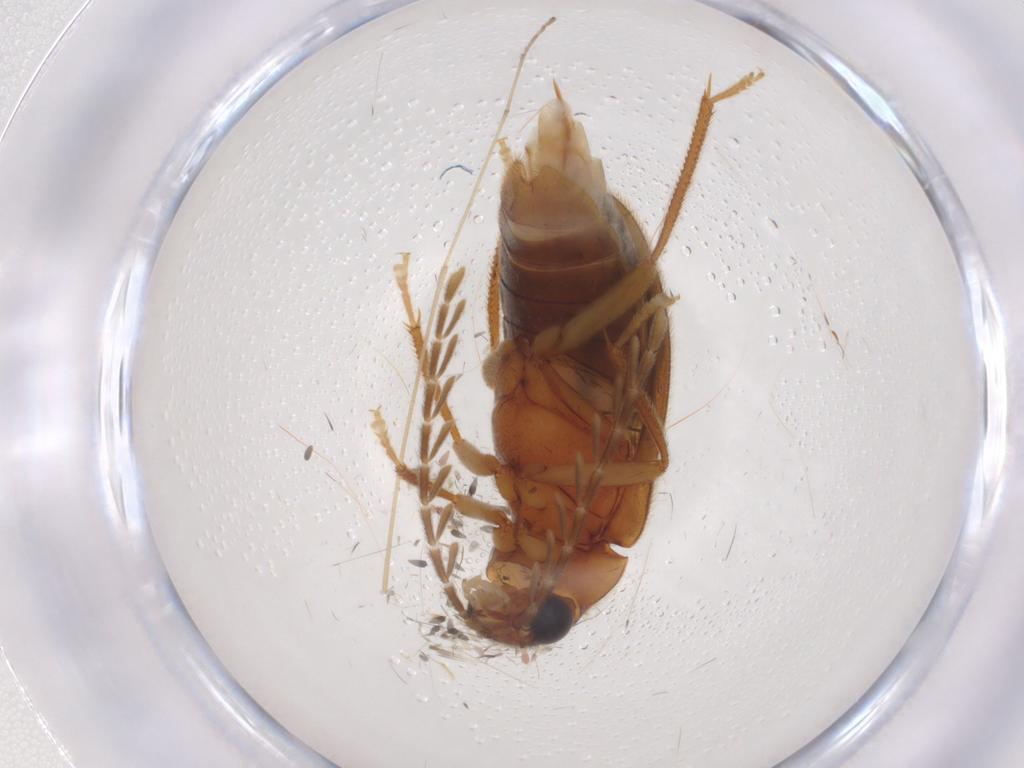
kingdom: Animalia
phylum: Arthropoda
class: Insecta
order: Coleoptera
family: Ptilodactylidae
